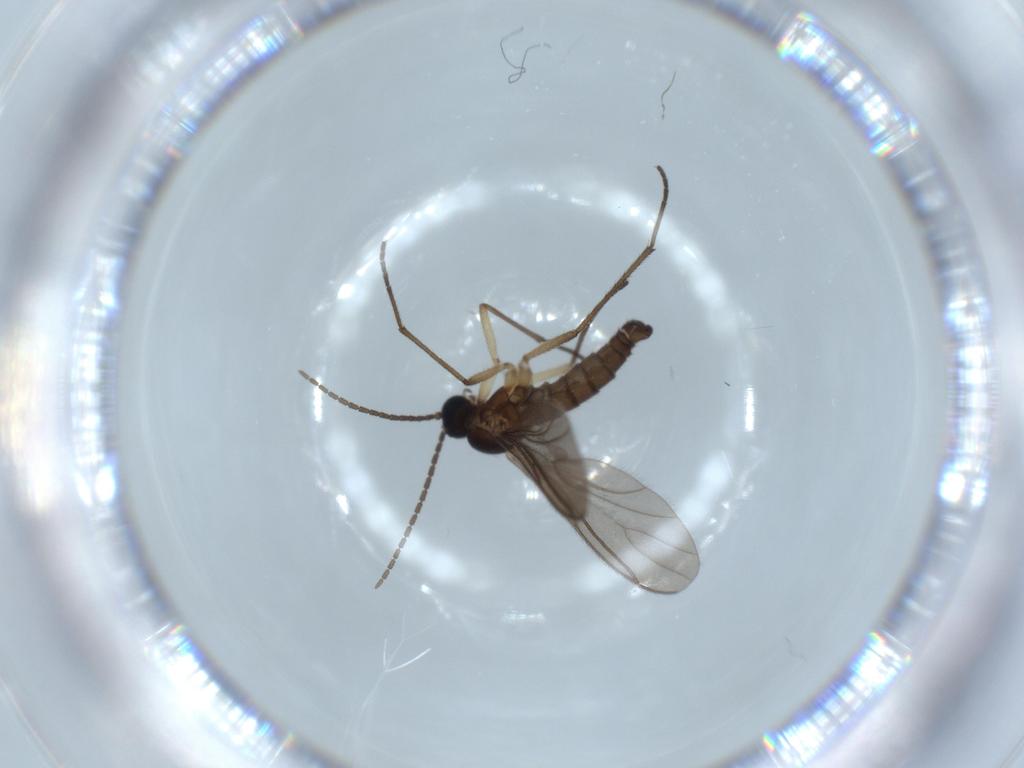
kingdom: Animalia
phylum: Arthropoda
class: Insecta
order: Diptera
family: Sciaridae
